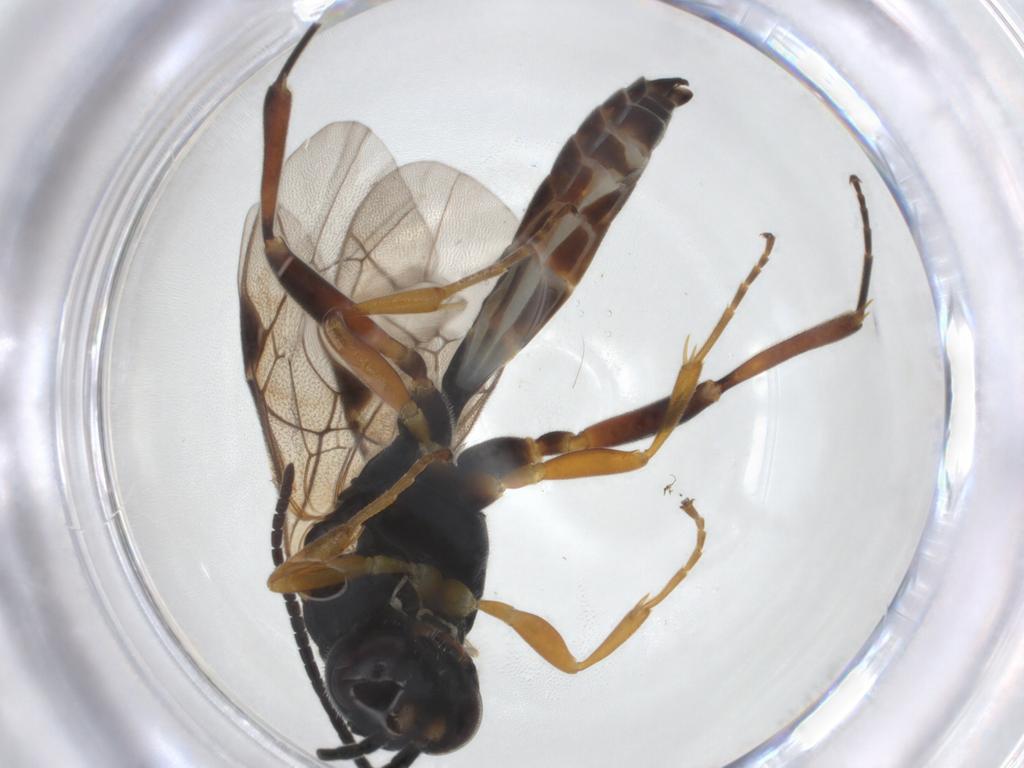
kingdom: Animalia
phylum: Arthropoda
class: Insecta
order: Hymenoptera
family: Ichneumonidae
